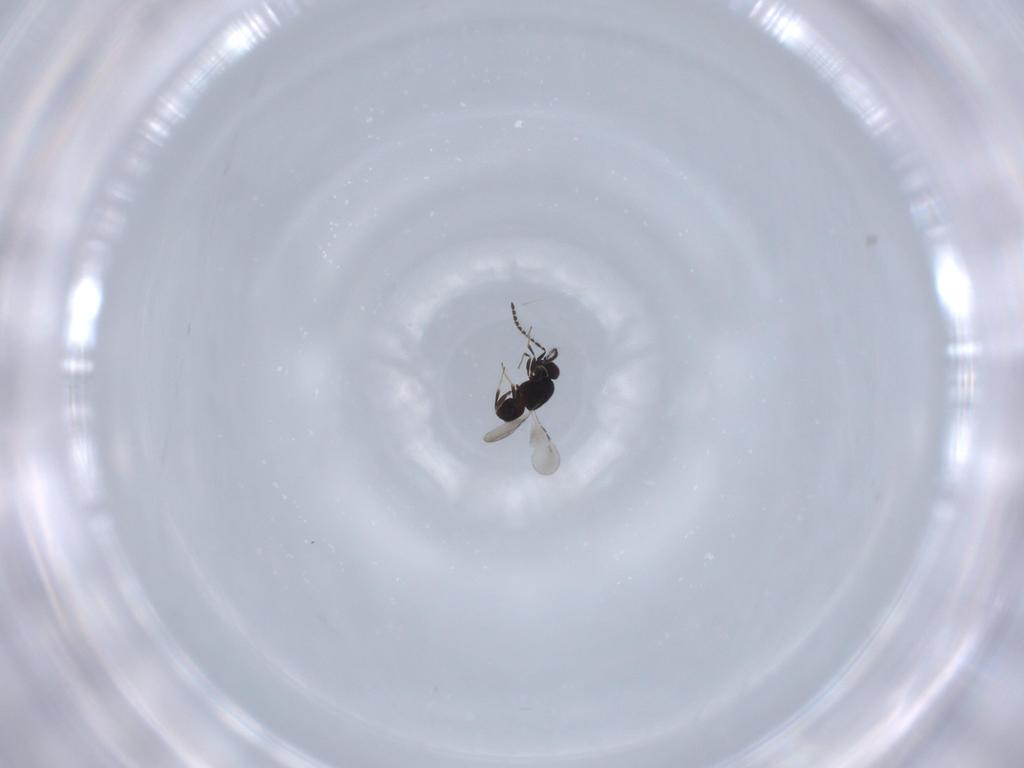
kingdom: Animalia
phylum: Arthropoda
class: Insecta
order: Hymenoptera
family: Ceraphronidae
